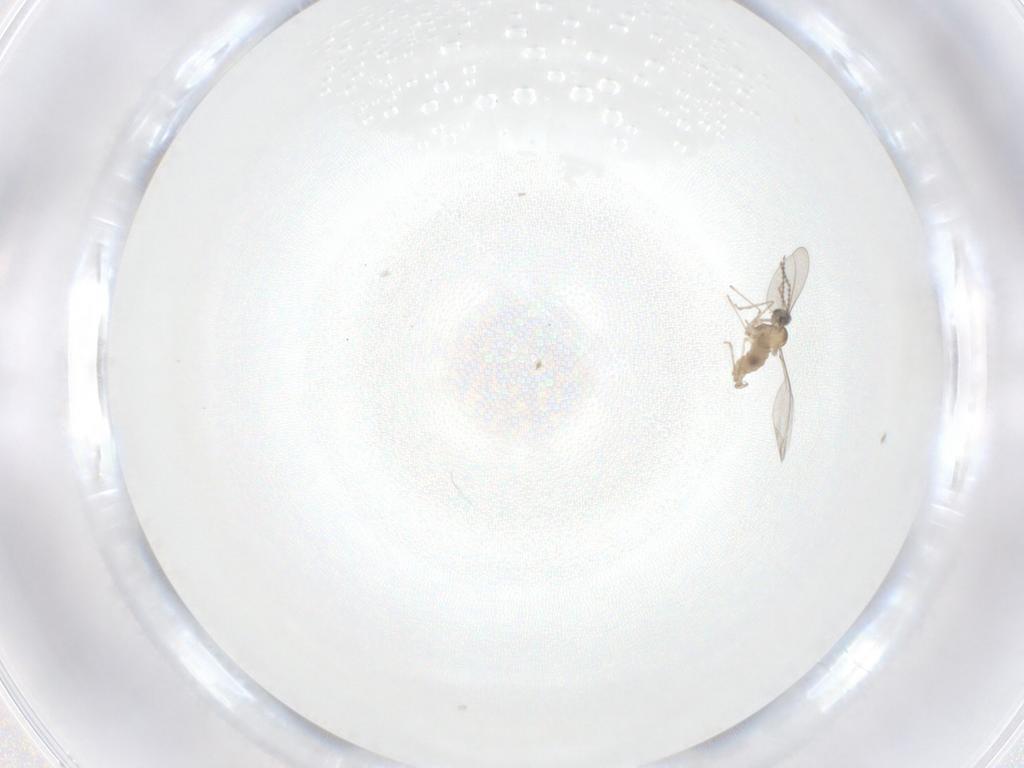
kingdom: Animalia
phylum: Arthropoda
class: Insecta
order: Diptera
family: Cecidomyiidae
